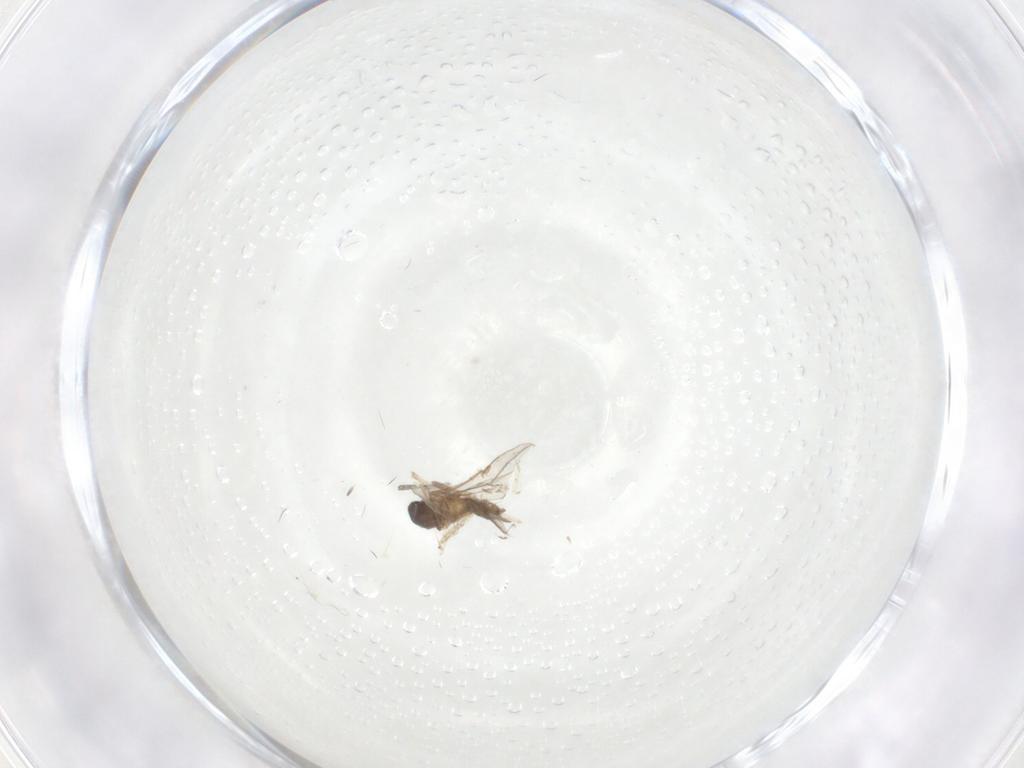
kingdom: Animalia
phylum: Arthropoda
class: Insecta
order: Diptera
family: Cecidomyiidae
